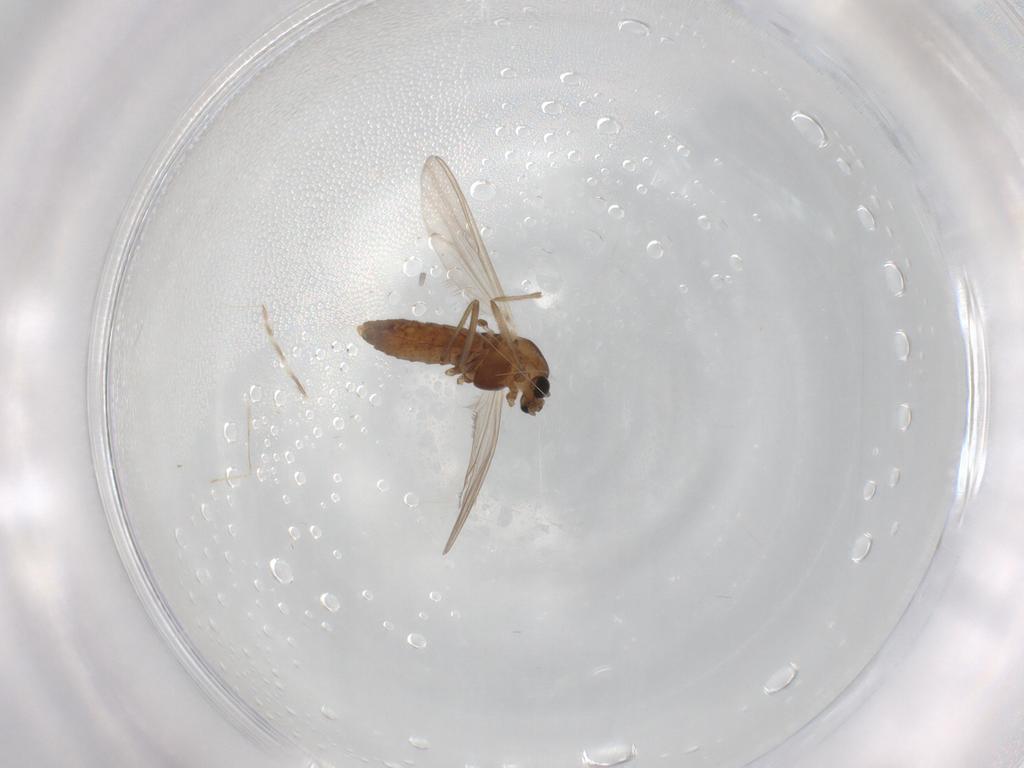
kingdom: Animalia
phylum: Arthropoda
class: Insecta
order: Diptera
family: Chironomidae
